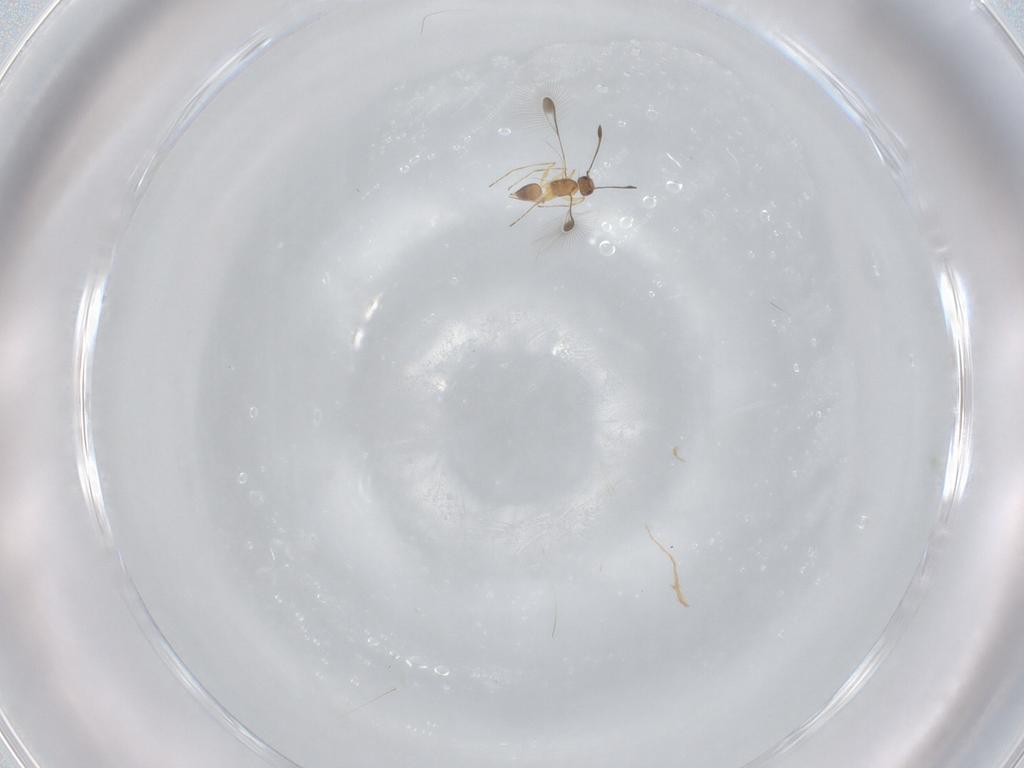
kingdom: Animalia
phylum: Arthropoda
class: Insecta
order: Hymenoptera
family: Mymaridae
